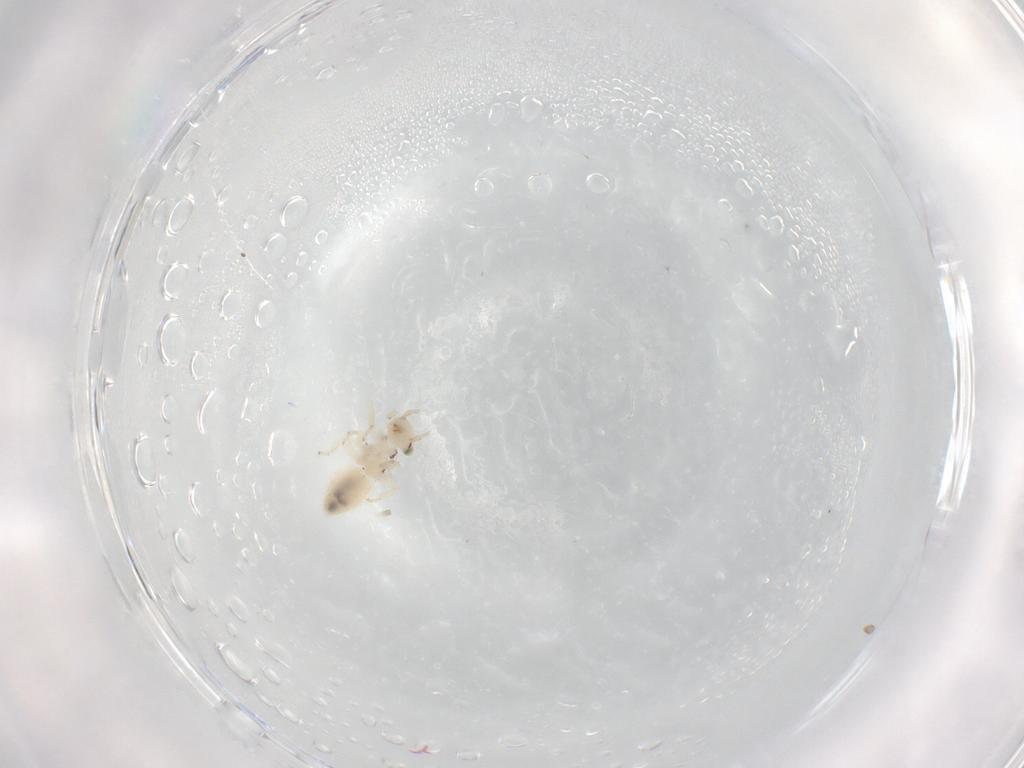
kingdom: Animalia
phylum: Arthropoda
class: Insecta
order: Psocodea
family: Lepidopsocidae
